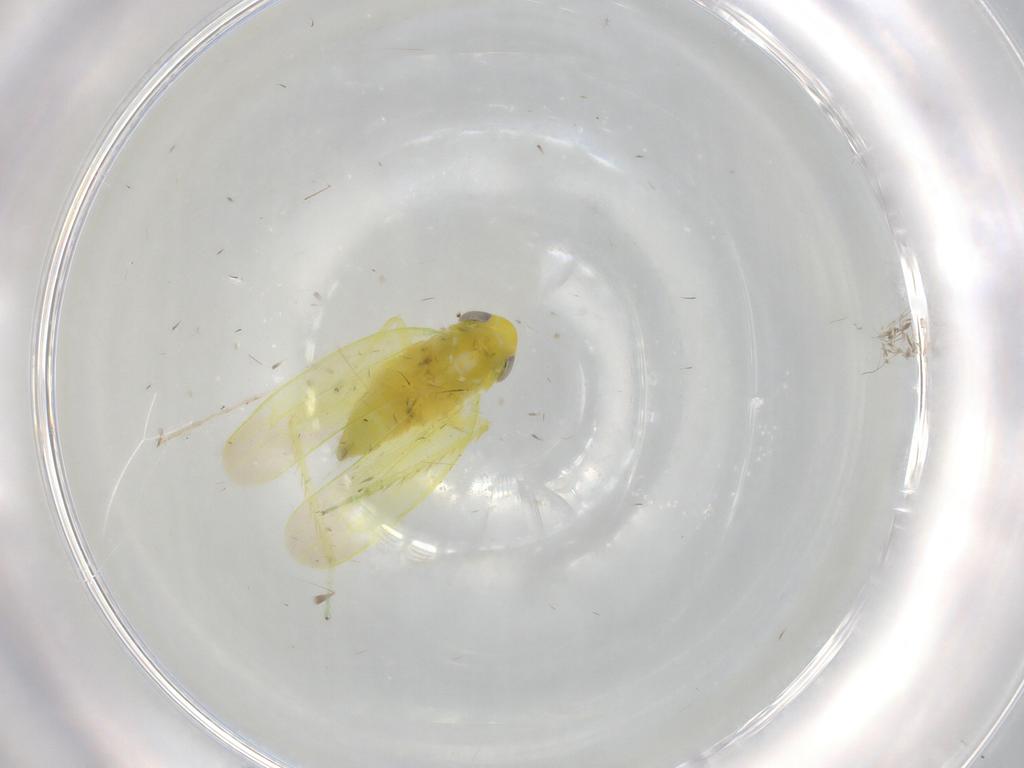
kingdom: Animalia
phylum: Arthropoda
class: Insecta
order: Hemiptera
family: Cicadellidae
